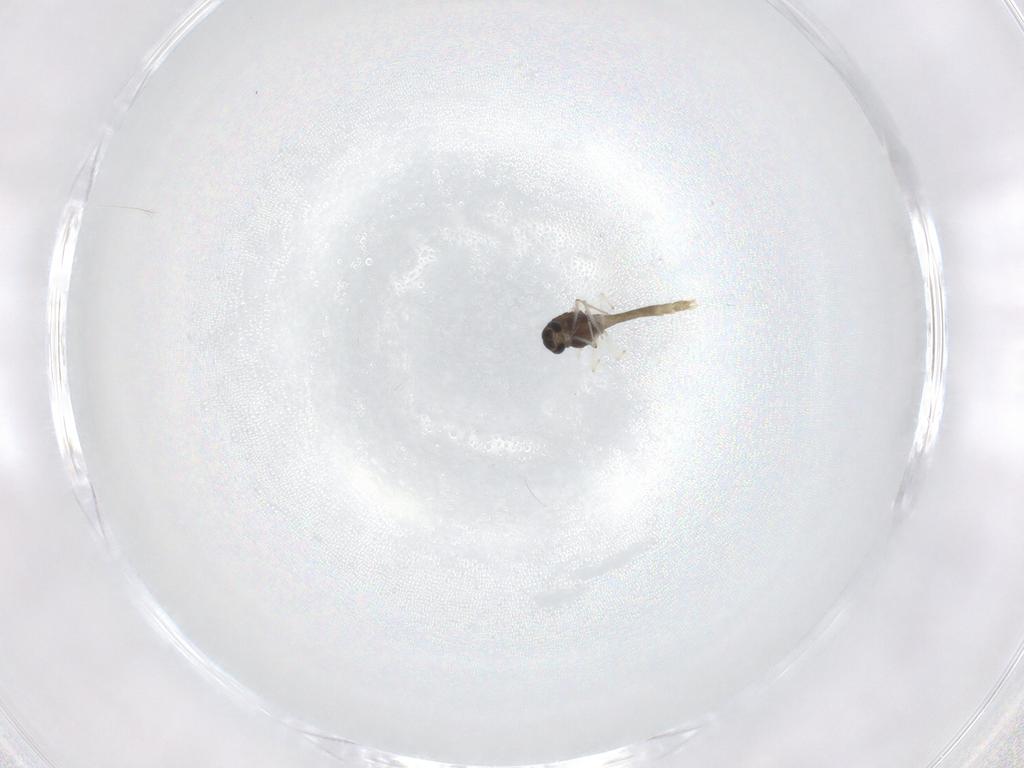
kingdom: Animalia
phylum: Arthropoda
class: Insecta
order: Diptera
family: Chironomidae
